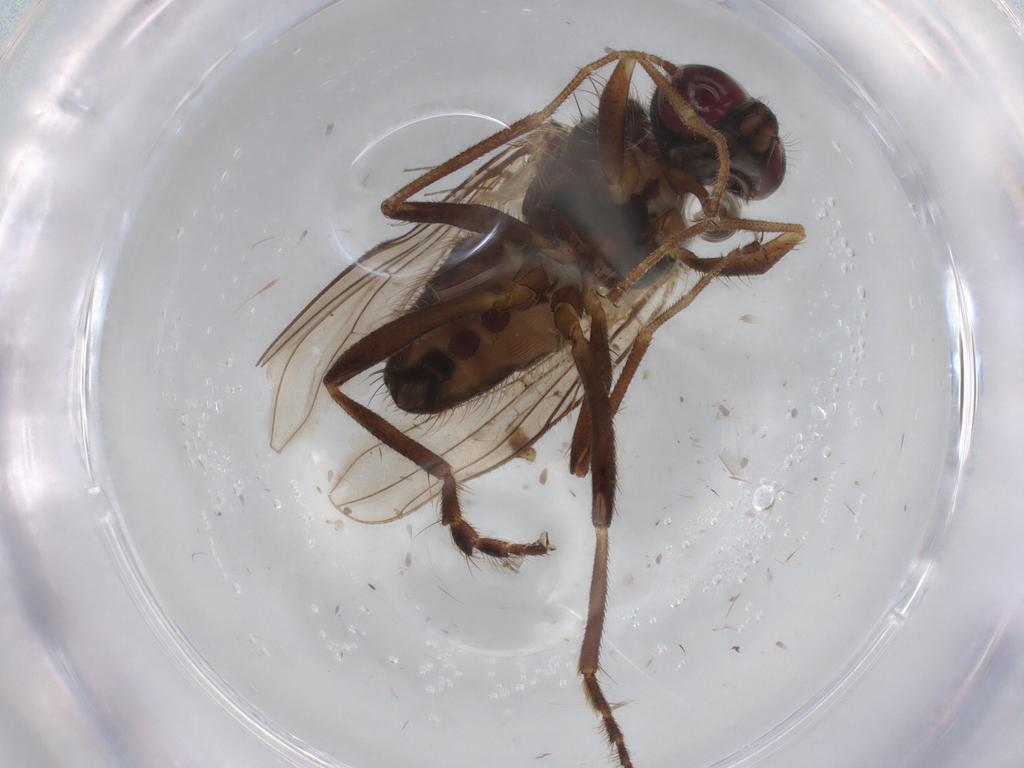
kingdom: Animalia
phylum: Arthropoda
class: Insecta
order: Diptera
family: Chironomidae
